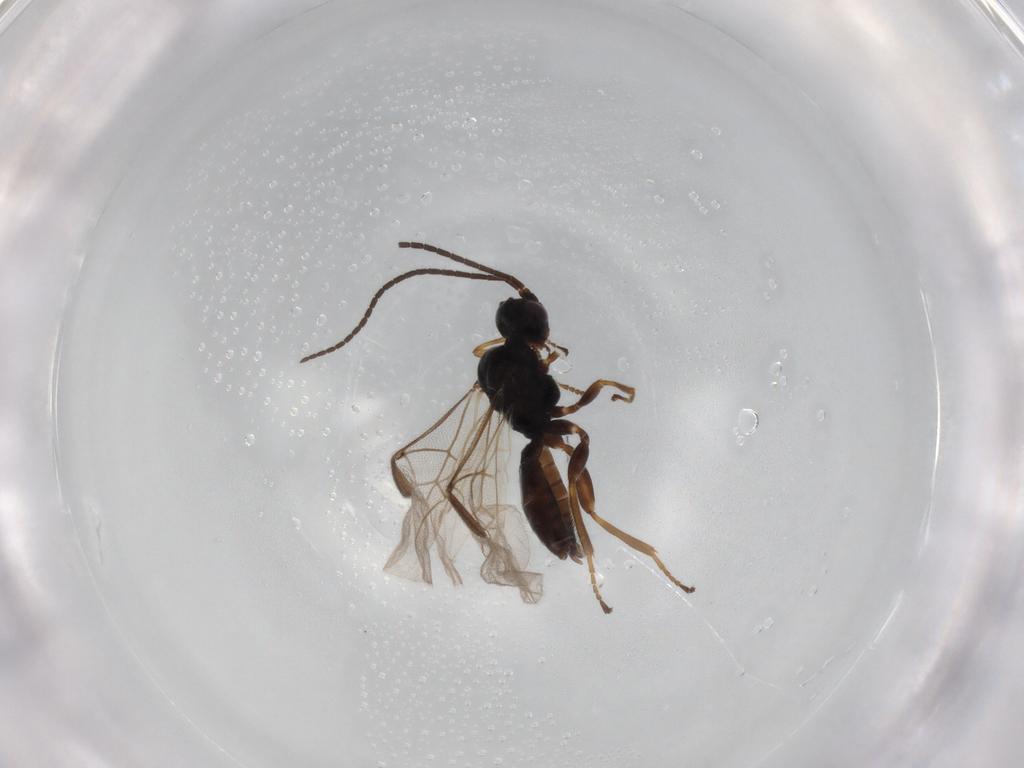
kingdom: Animalia
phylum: Arthropoda
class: Insecta
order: Hymenoptera
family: Braconidae
